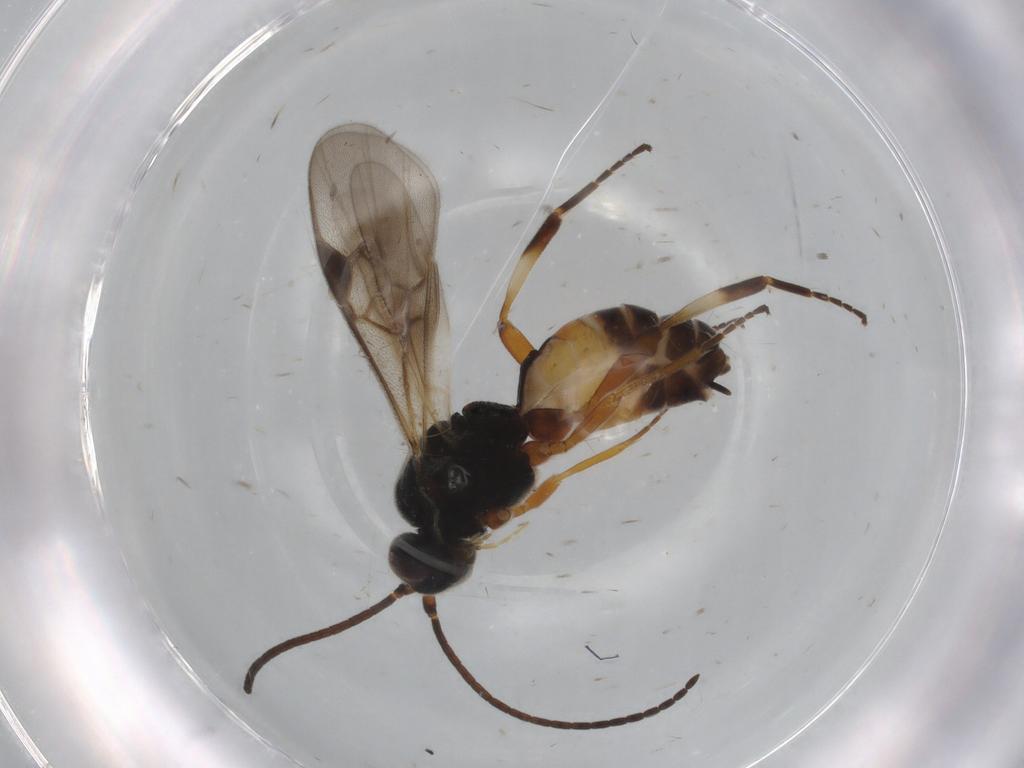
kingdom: Animalia
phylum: Arthropoda
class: Insecta
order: Hymenoptera
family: Braconidae
